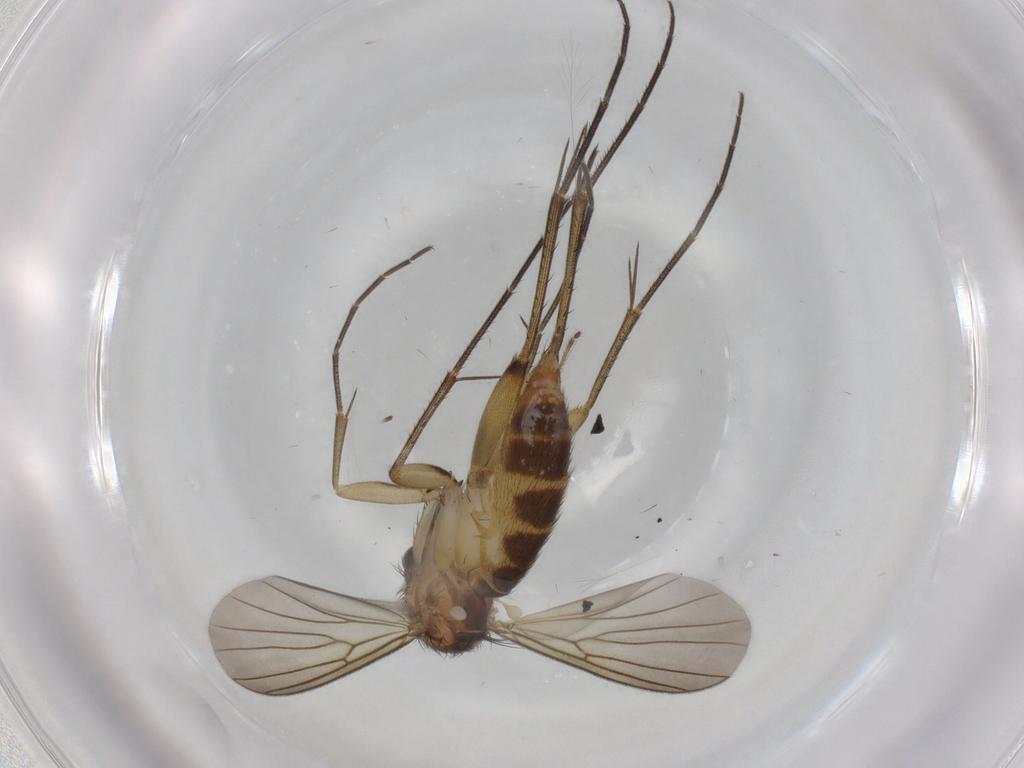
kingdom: Animalia
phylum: Arthropoda
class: Insecta
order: Diptera
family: Mycetophilidae
